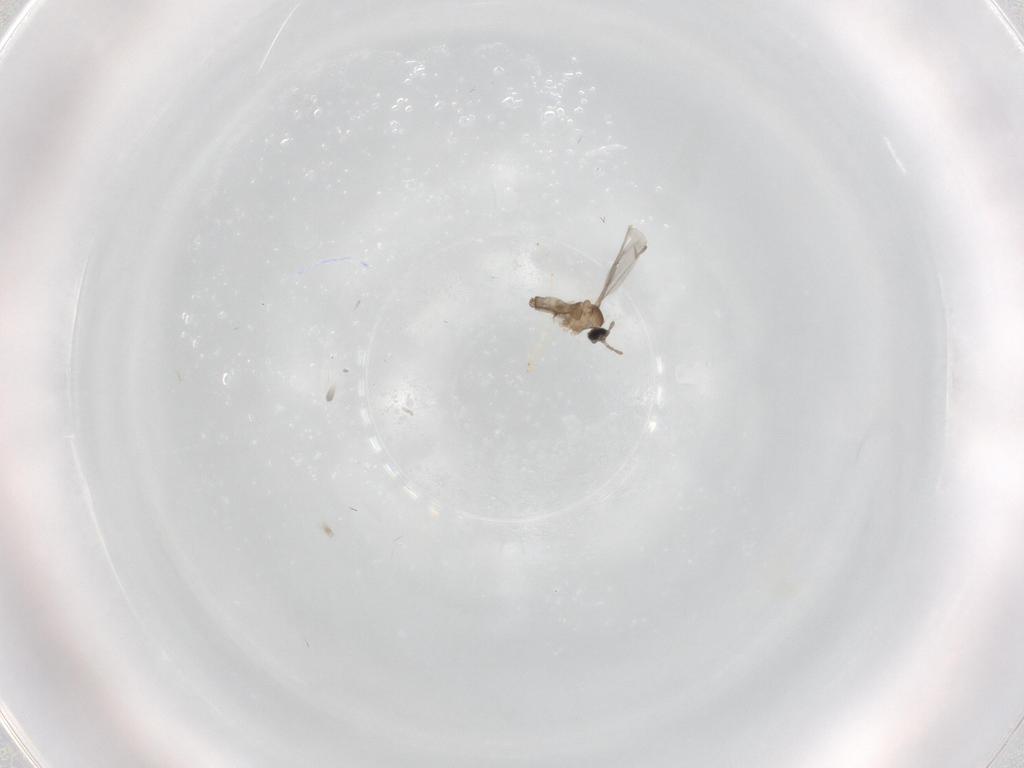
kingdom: Animalia
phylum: Arthropoda
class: Insecta
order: Diptera
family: Cecidomyiidae
